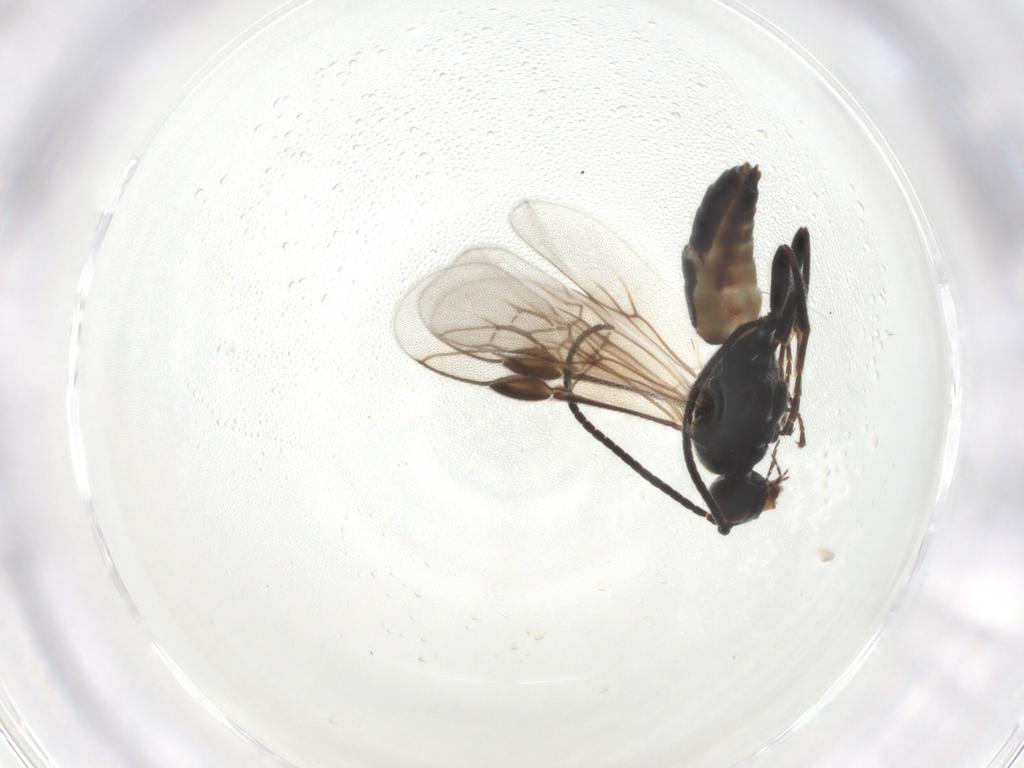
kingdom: Animalia
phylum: Arthropoda
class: Insecta
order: Hymenoptera
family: Braconidae
